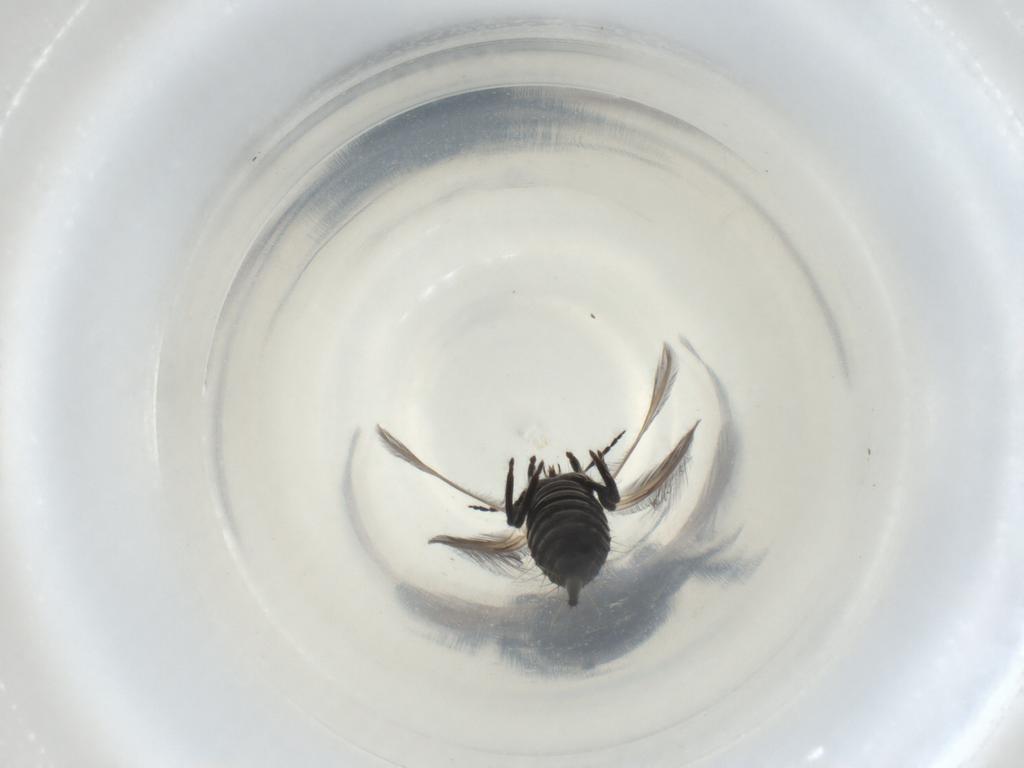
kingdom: Animalia
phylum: Arthropoda
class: Insecta
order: Thysanoptera
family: Phlaeothripidae
